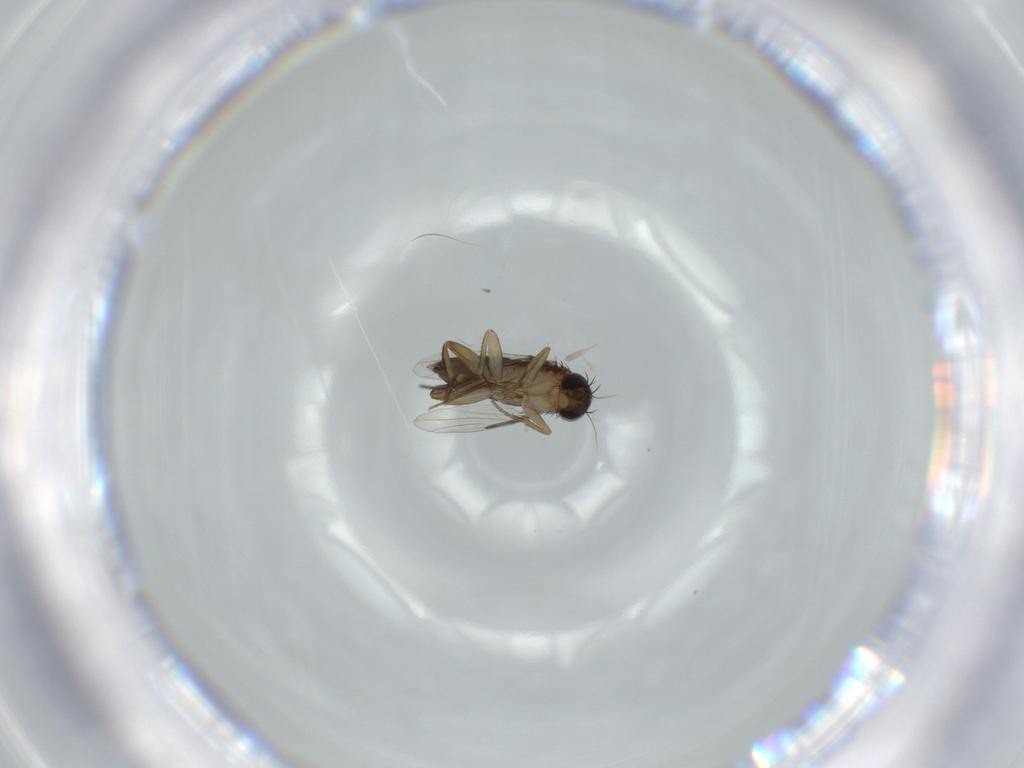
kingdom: Animalia
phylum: Arthropoda
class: Insecta
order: Diptera
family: Phoridae
